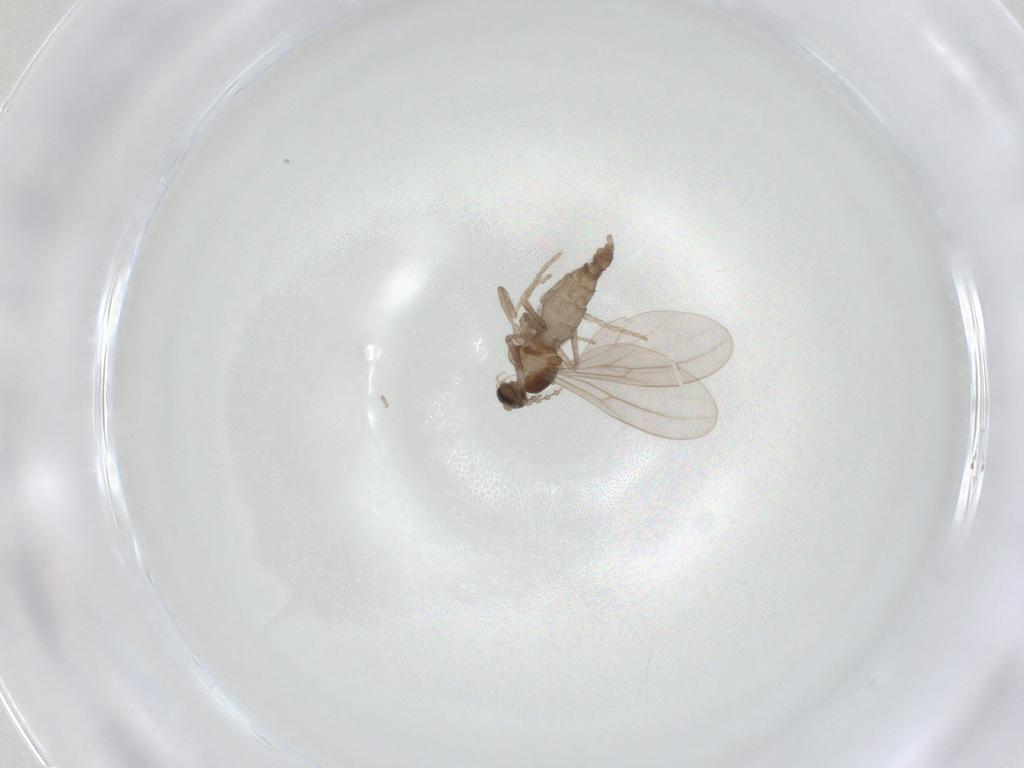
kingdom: Animalia
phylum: Arthropoda
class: Insecta
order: Diptera
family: Cecidomyiidae
